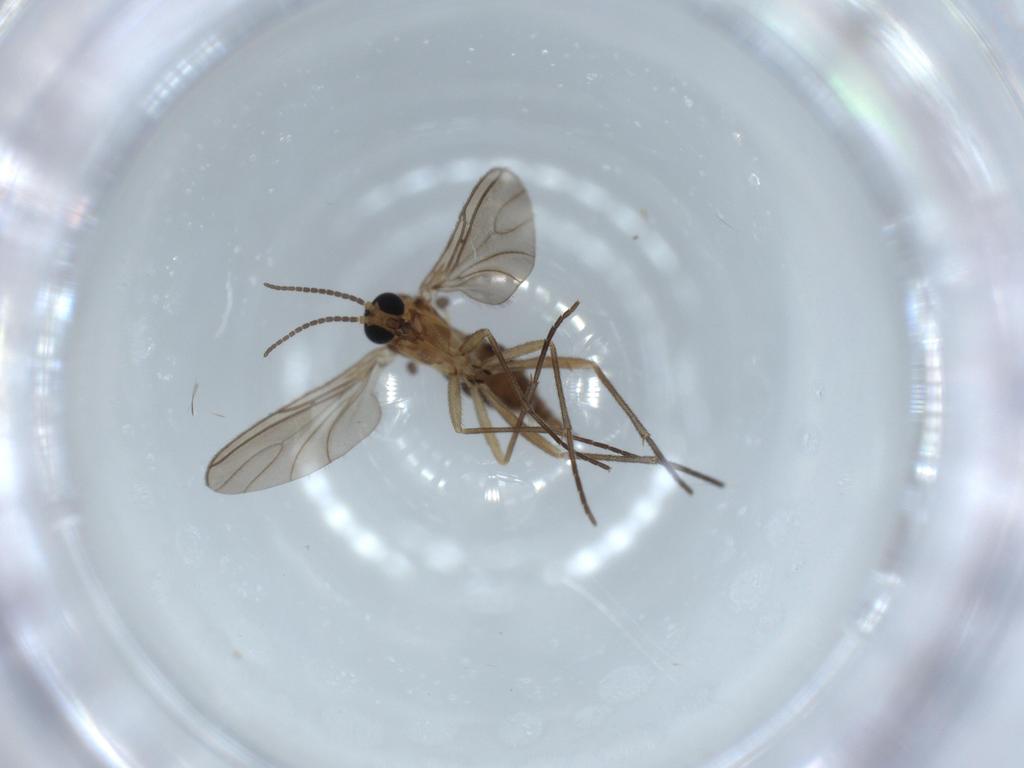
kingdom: Animalia
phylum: Arthropoda
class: Insecta
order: Diptera
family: Sciaridae
